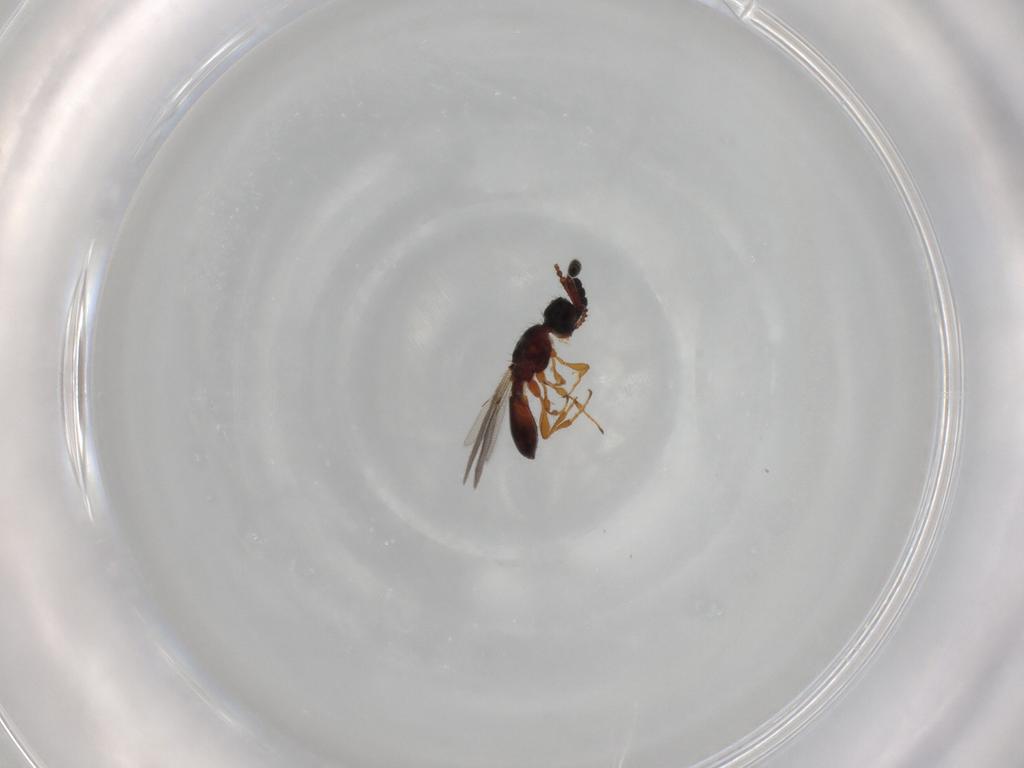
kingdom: Animalia
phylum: Arthropoda
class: Insecta
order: Hymenoptera
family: Diapriidae
